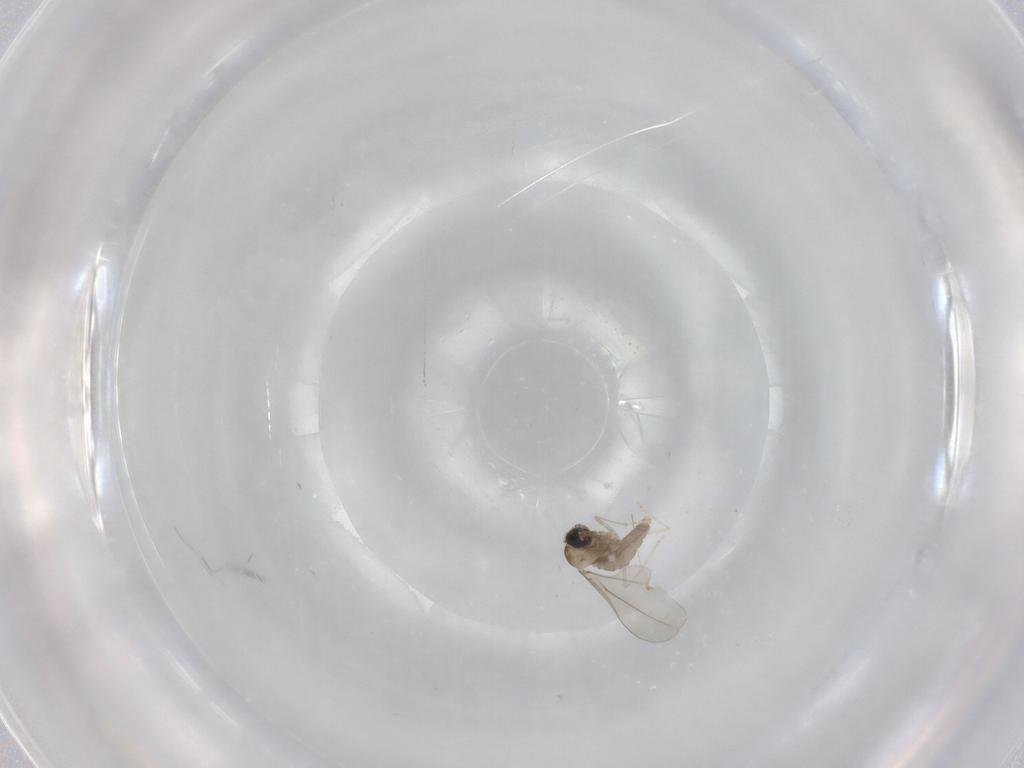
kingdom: Animalia
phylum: Arthropoda
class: Insecta
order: Diptera
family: Cecidomyiidae
